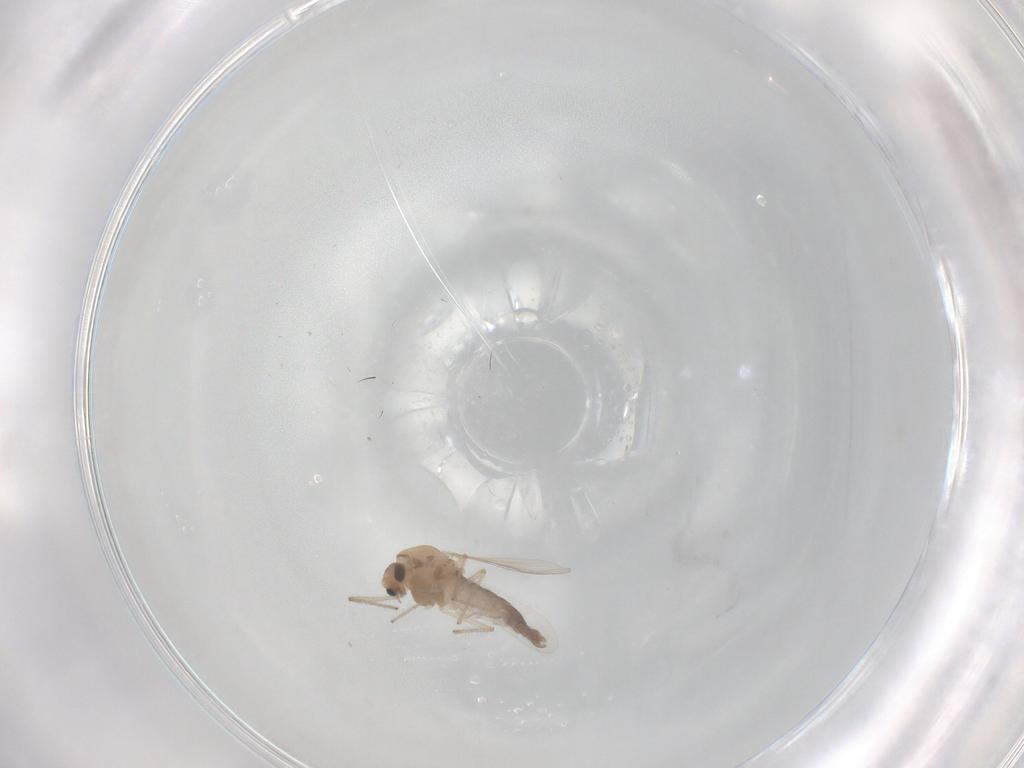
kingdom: Animalia
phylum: Arthropoda
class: Insecta
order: Diptera
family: Chironomidae
